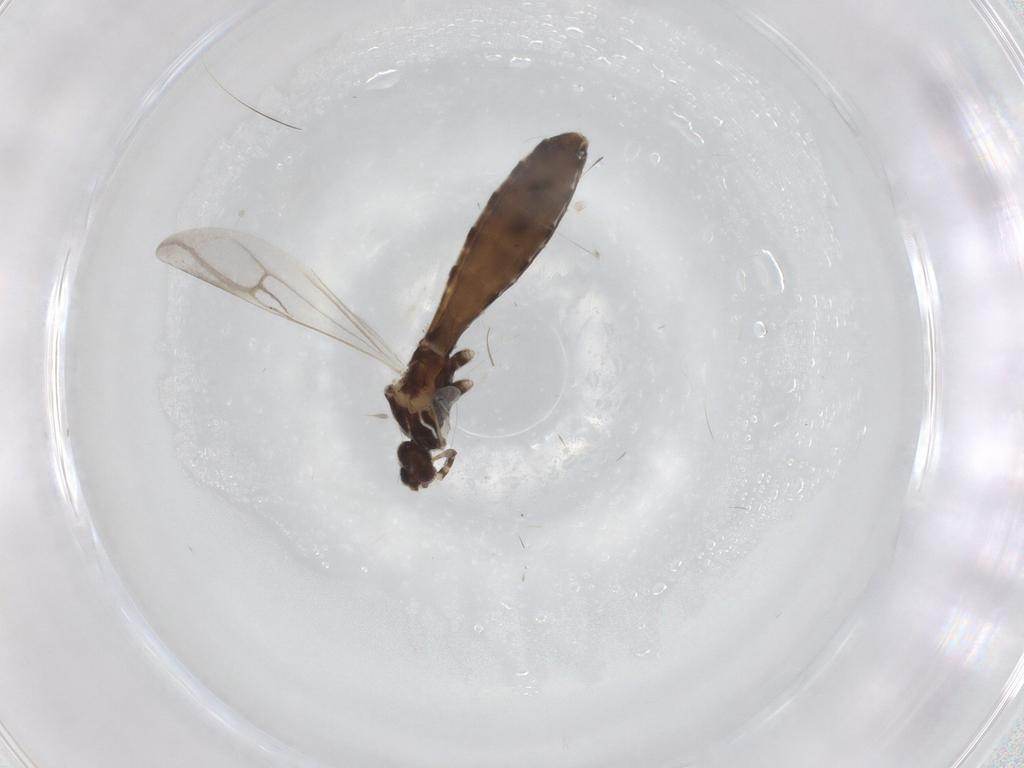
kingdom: Animalia
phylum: Arthropoda
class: Insecta
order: Hemiptera
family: Reduviidae
